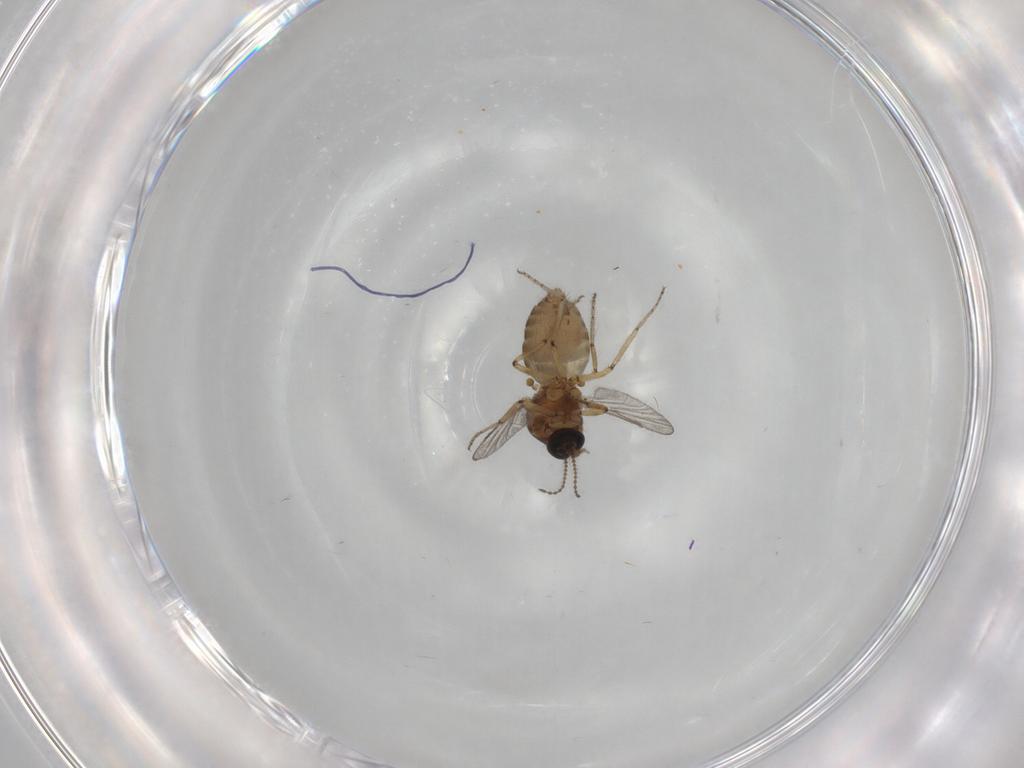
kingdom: Animalia
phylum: Arthropoda
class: Insecta
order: Diptera
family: Ceratopogonidae
